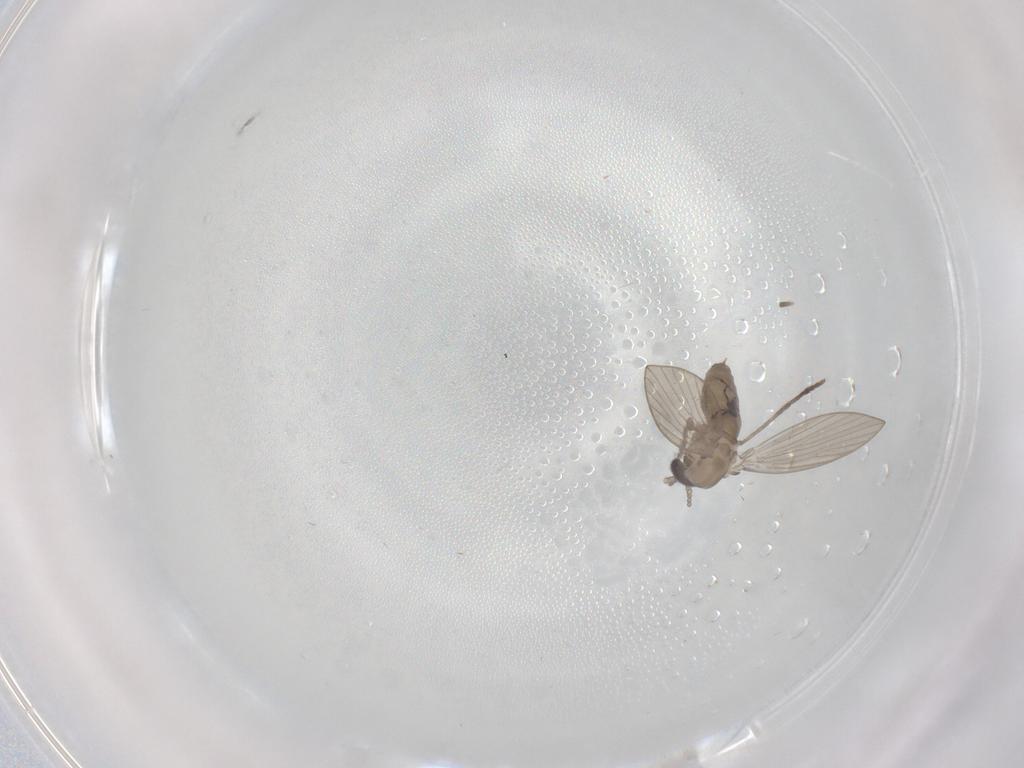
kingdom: Animalia
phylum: Arthropoda
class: Insecta
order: Diptera
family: Psychodidae
